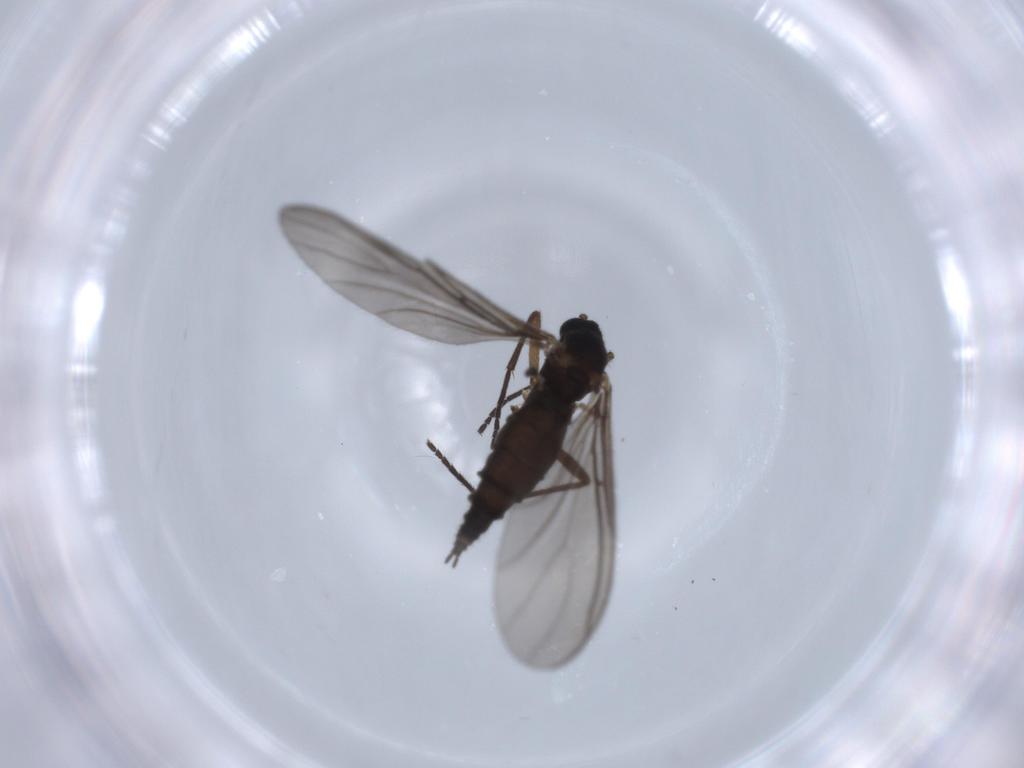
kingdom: Animalia
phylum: Arthropoda
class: Insecta
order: Diptera
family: Sciaridae
